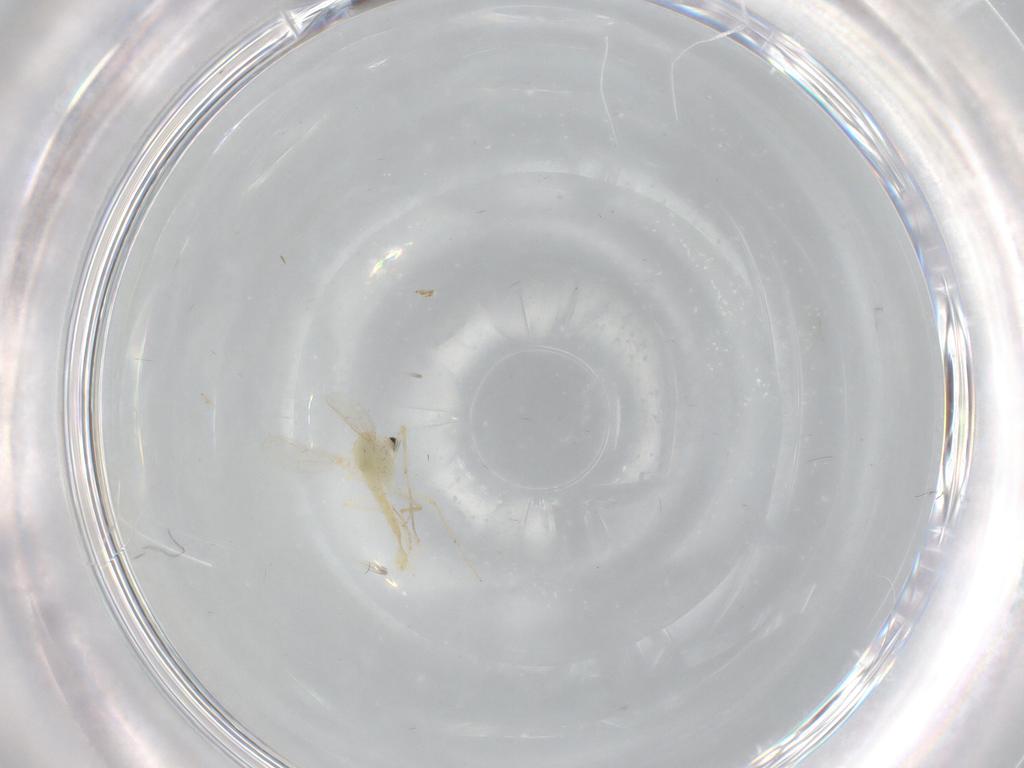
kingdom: Animalia
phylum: Arthropoda
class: Insecta
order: Diptera
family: Chironomidae
